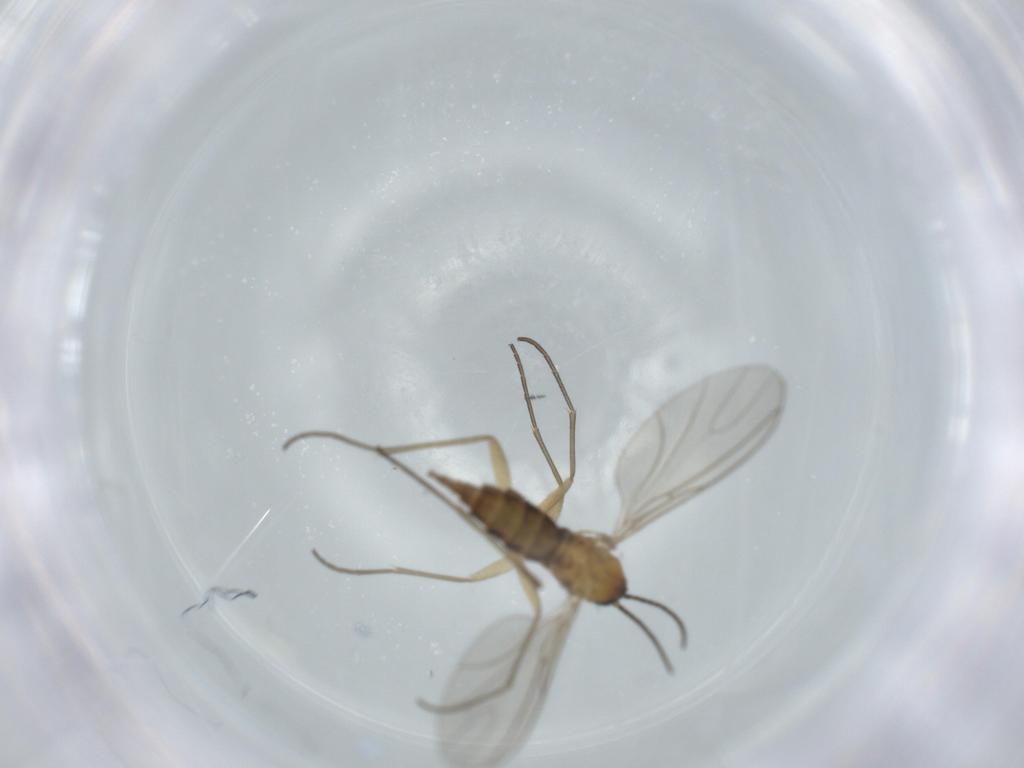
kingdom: Animalia
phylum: Arthropoda
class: Insecta
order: Diptera
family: Sciaridae
